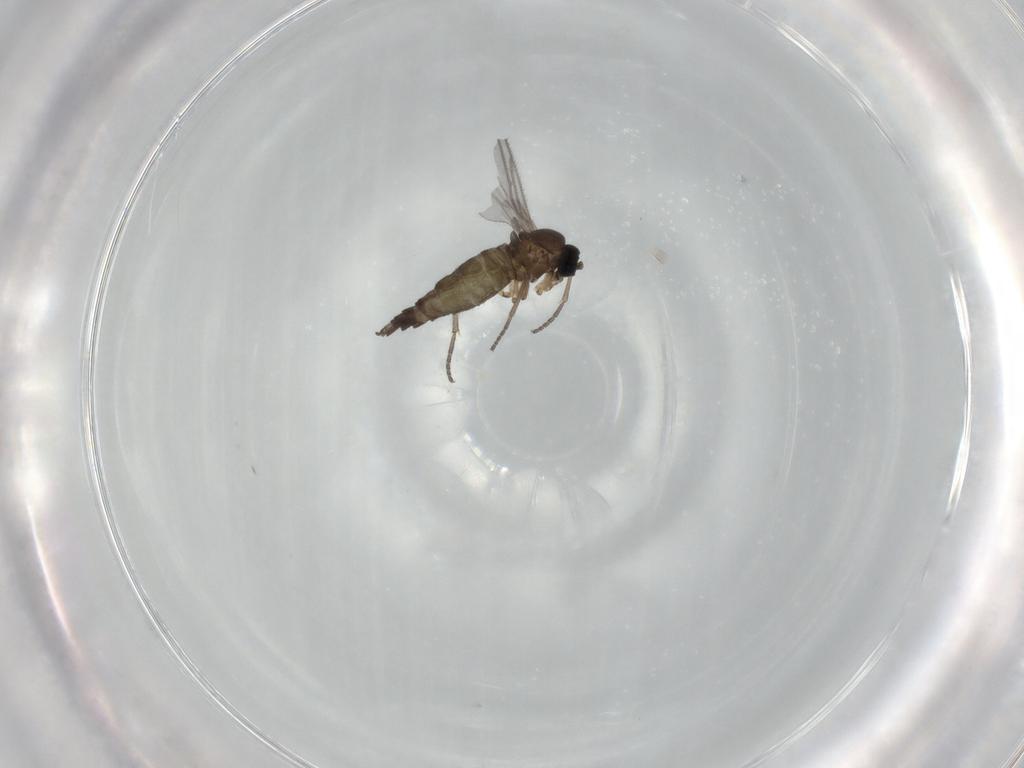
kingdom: Animalia
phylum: Arthropoda
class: Insecta
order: Diptera
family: Sciaridae
